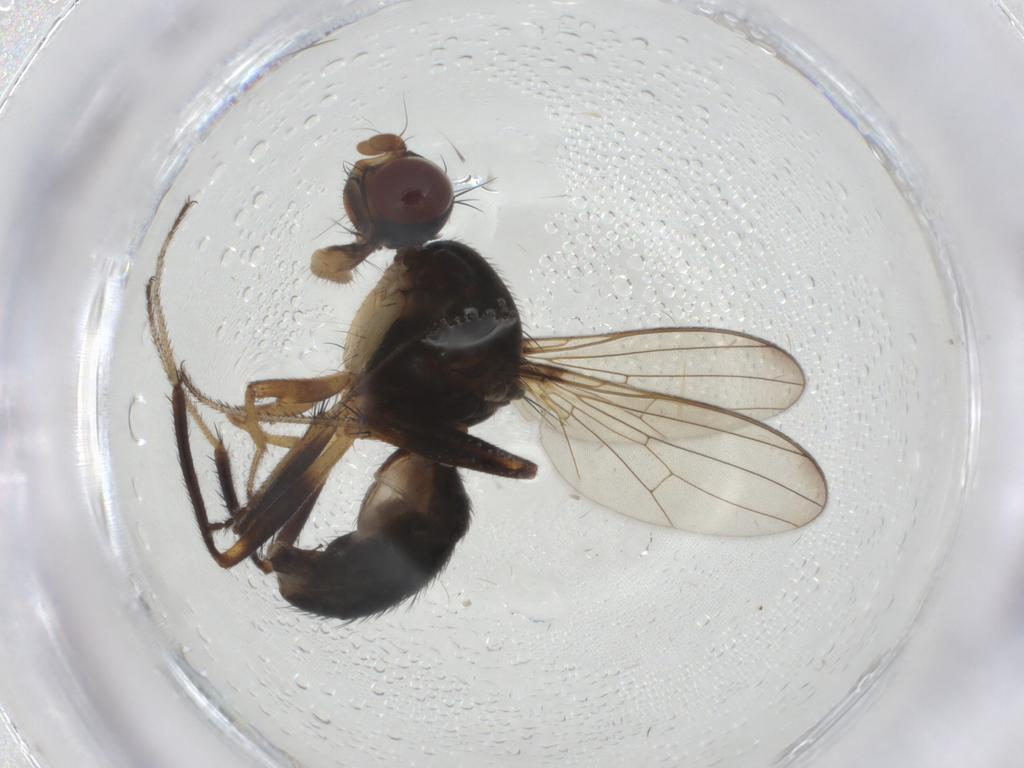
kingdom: Animalia
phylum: Arthropoda
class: Insecta
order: Diptera
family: Sepsidae
